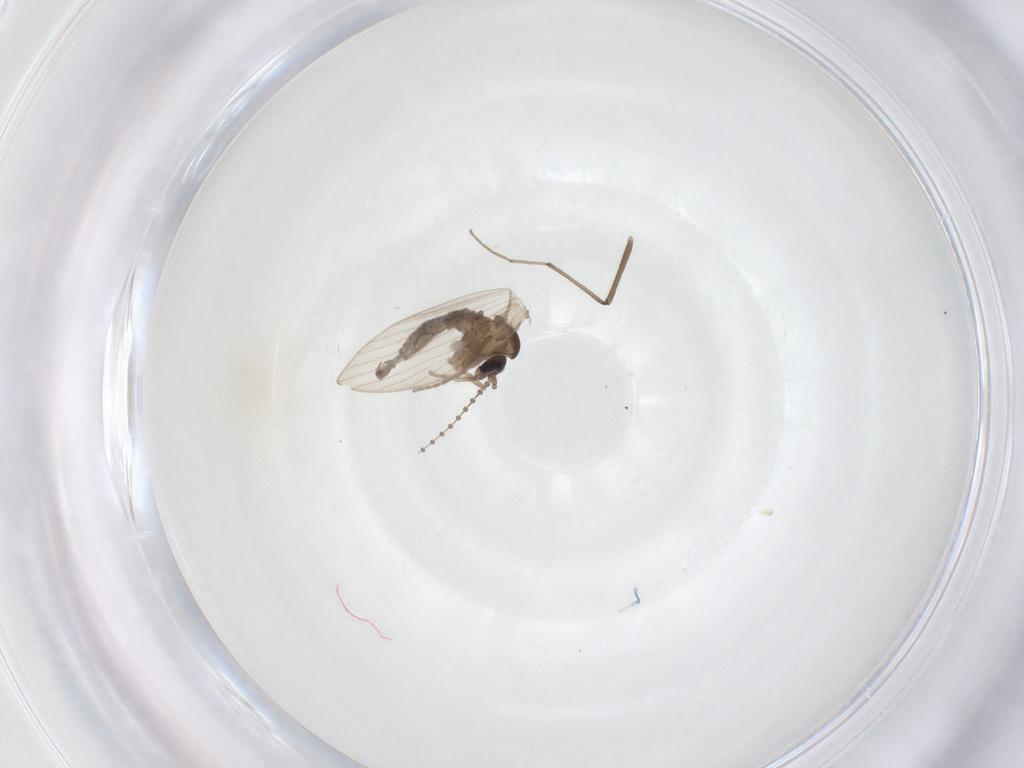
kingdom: Animalia
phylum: Arthropoda
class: Insecta
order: Diptera
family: Chironomidae
